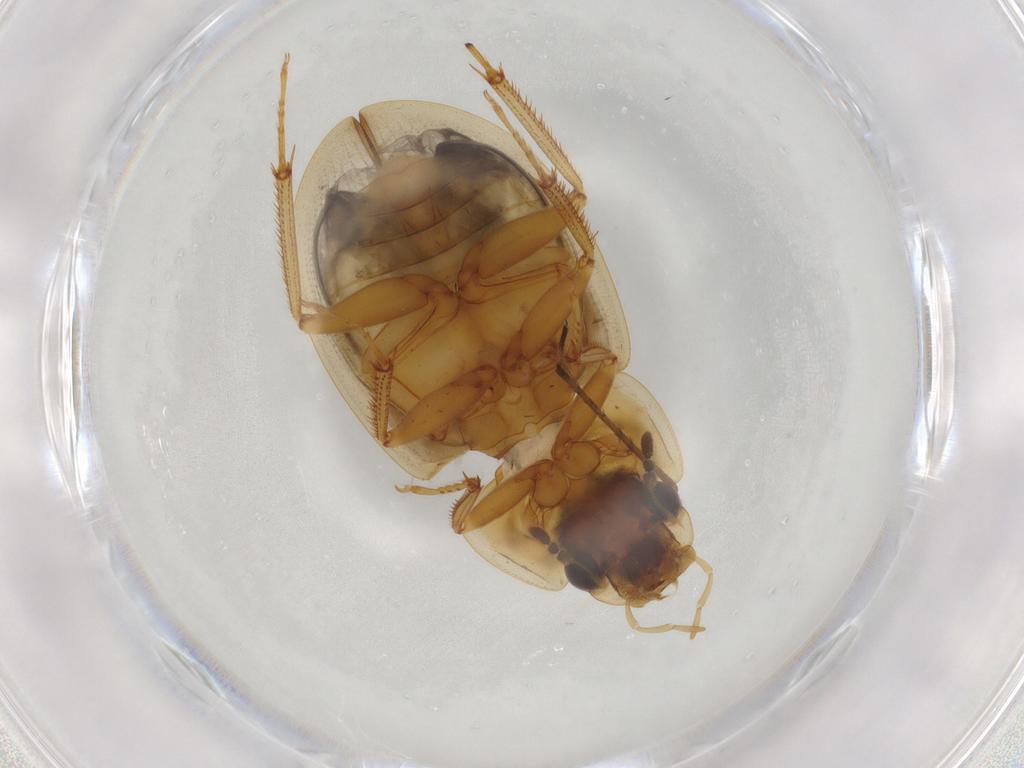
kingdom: Animalia
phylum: Arthropoda
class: Insecta
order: Coleoptera
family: Hydrophilidae
